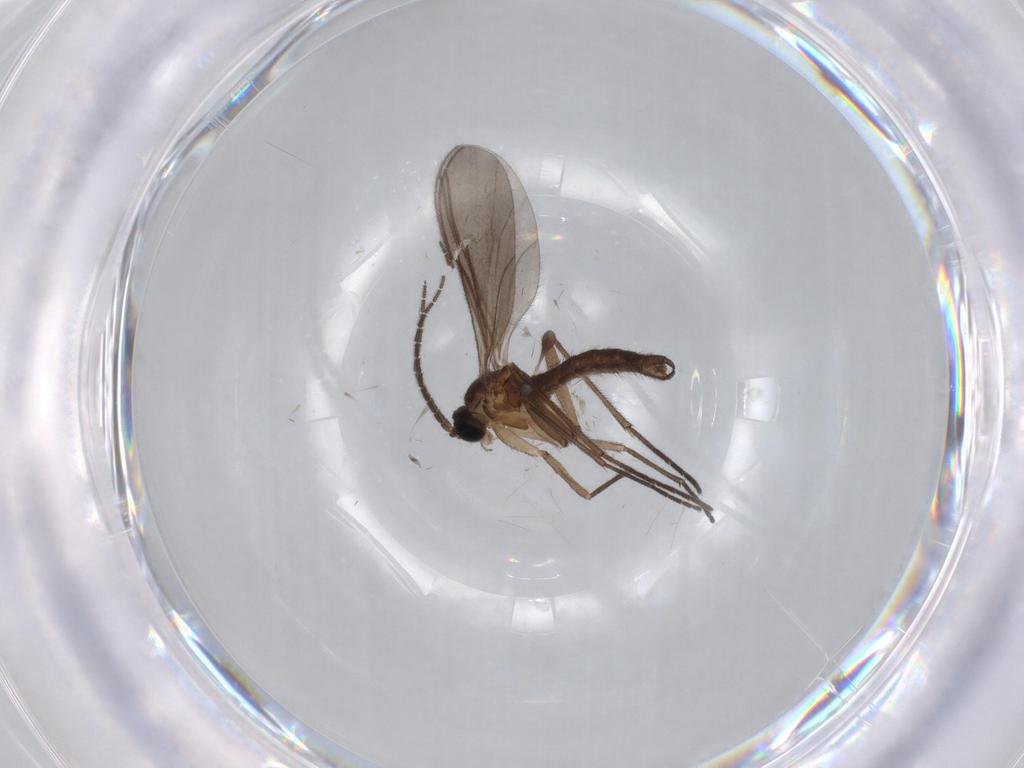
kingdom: Animalia
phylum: Arthropoda
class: Insecta
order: Diptera
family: Sciaridae
